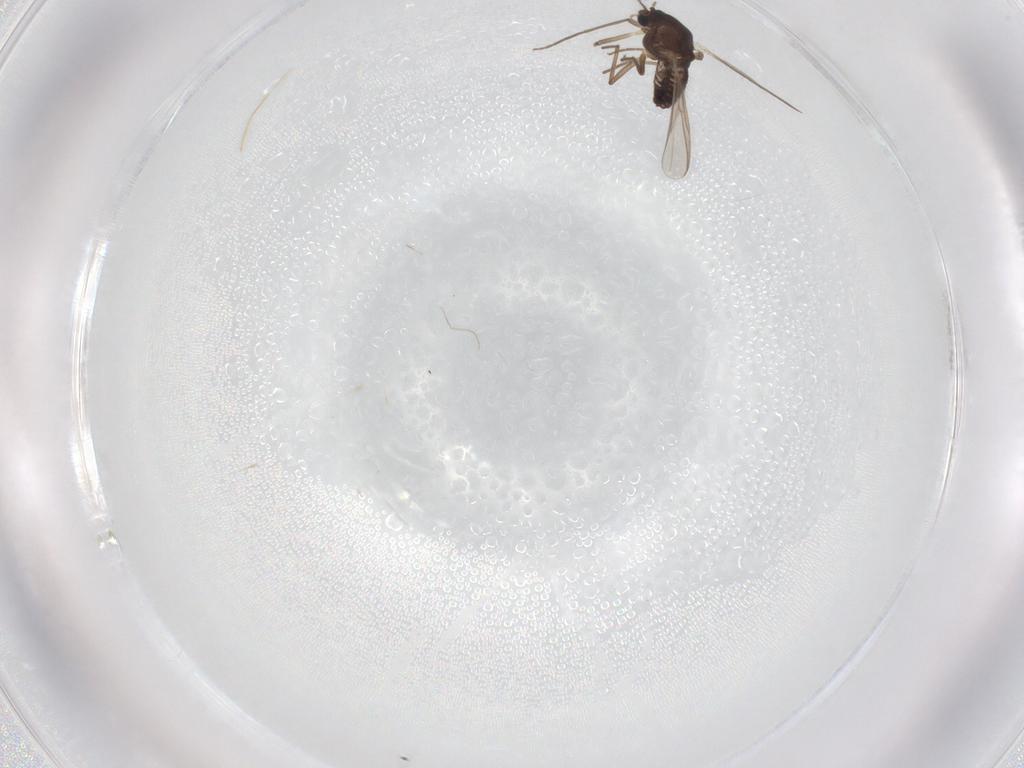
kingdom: Animalia
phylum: Arthropoda
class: Insecta
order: Diptera
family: Chironomidae
